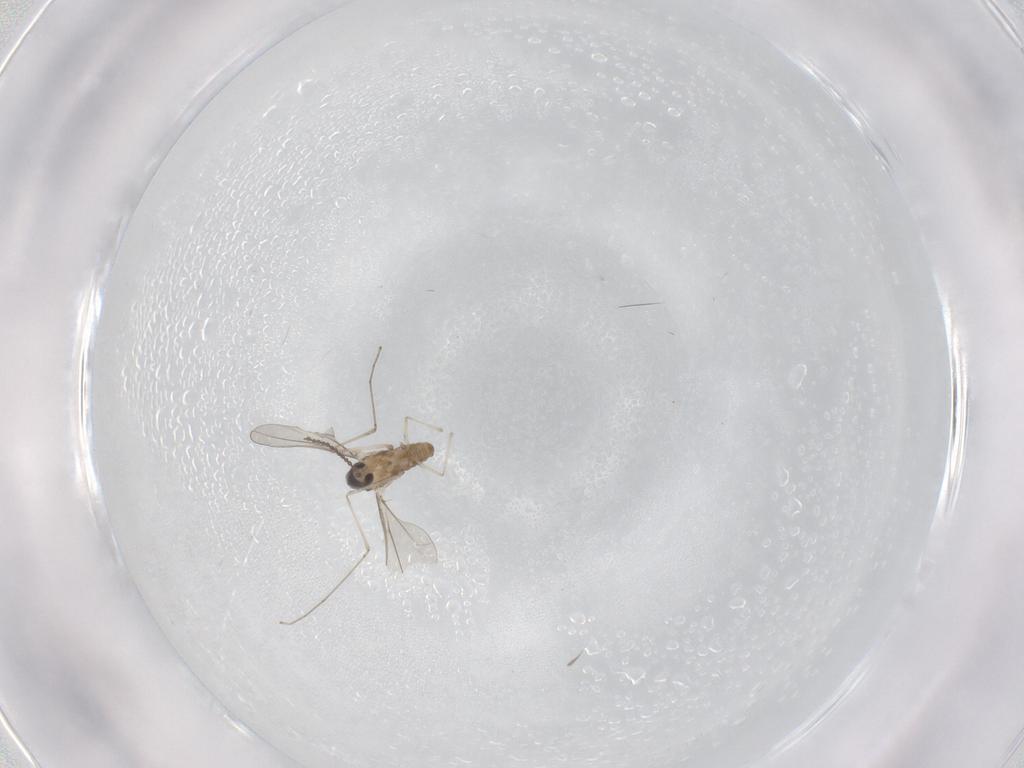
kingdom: Animalia
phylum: Arthropoda
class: Insecta
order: Diptera
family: Cecidomyiidae
